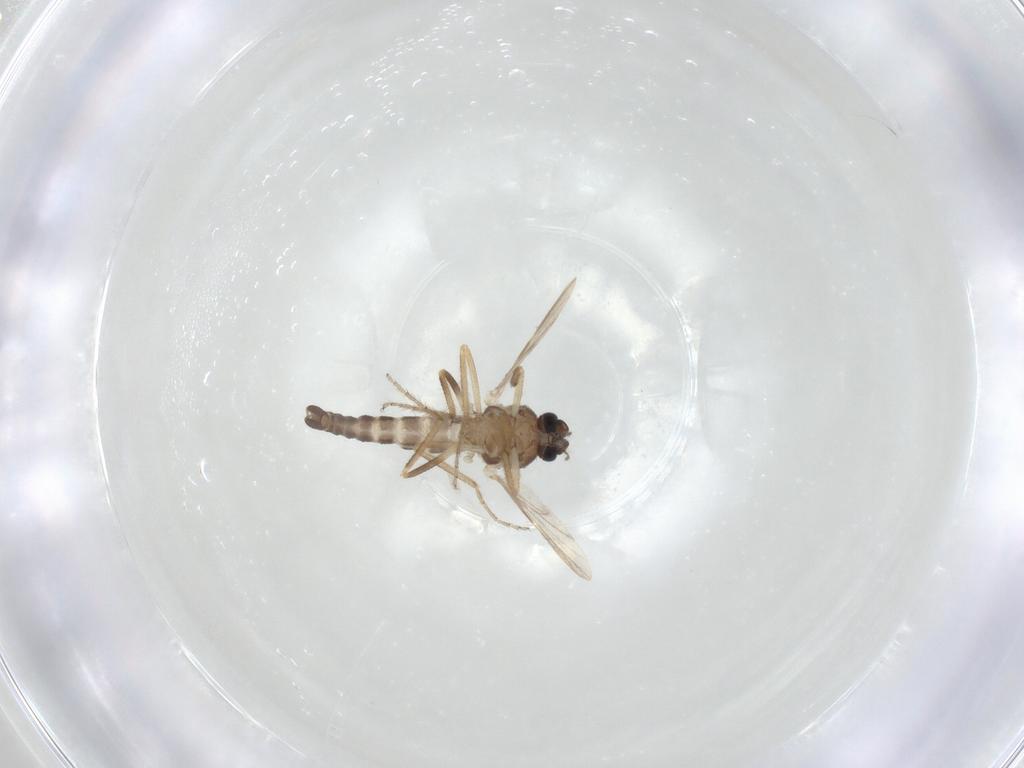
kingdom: Animalia
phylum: Arthropoda
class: Insecta
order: Diptera
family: Ceratopogonidae
